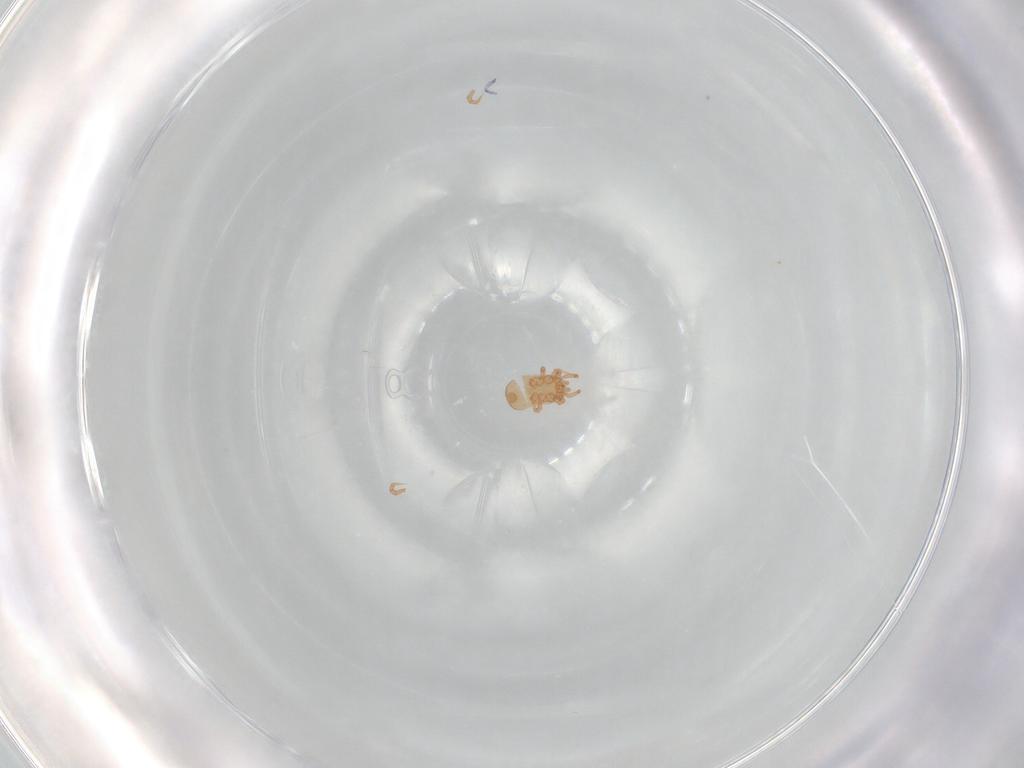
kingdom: Animalia
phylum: Arthropoda
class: Arachnida
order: Mesostigmata
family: Ascidae
